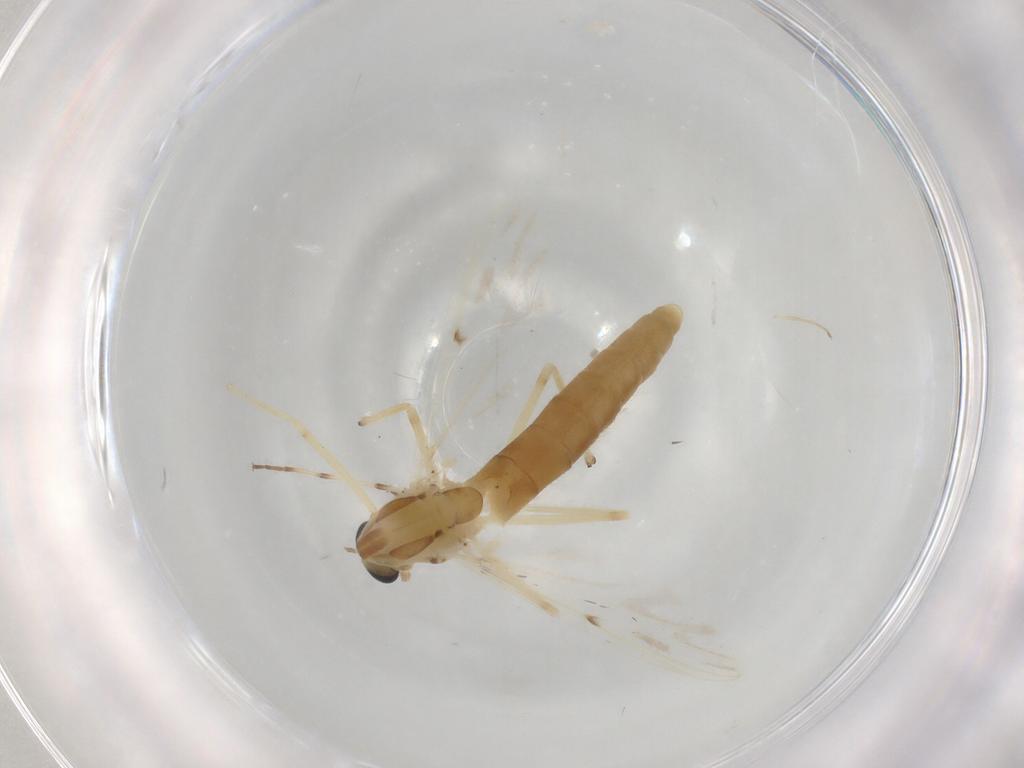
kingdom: Animalia
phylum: Arthropoda
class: Insecta
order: Diptera
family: Chironomidae
